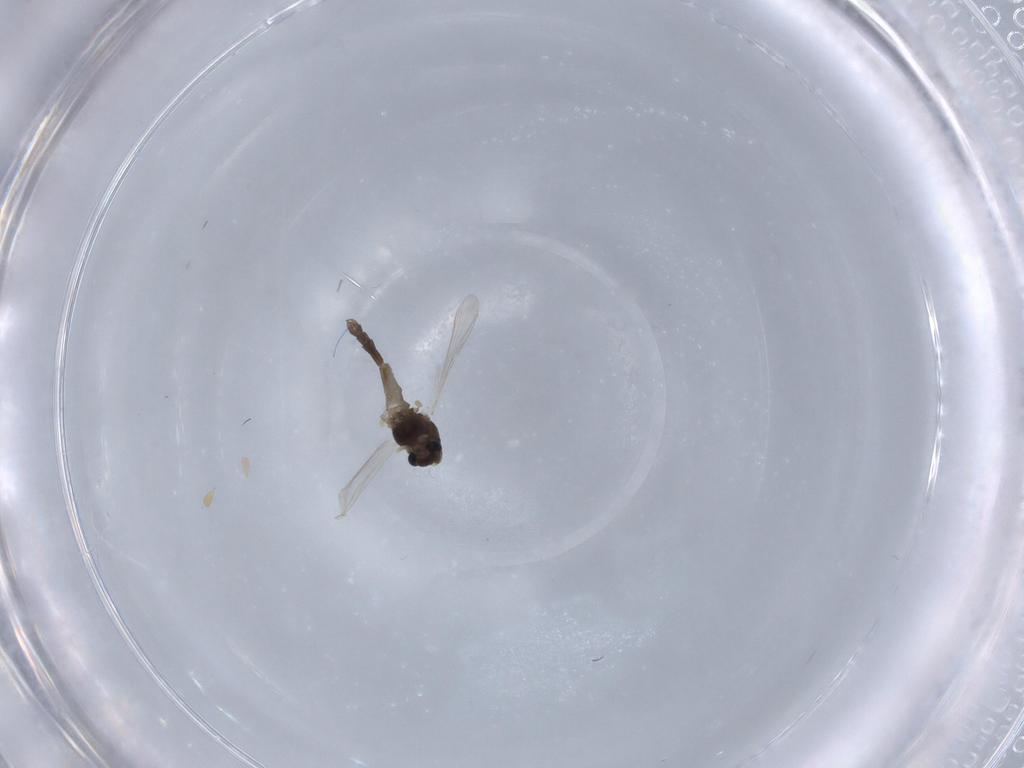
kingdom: Animalia
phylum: Arthropoda
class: Insecta
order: Diptera
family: Chironomidae
